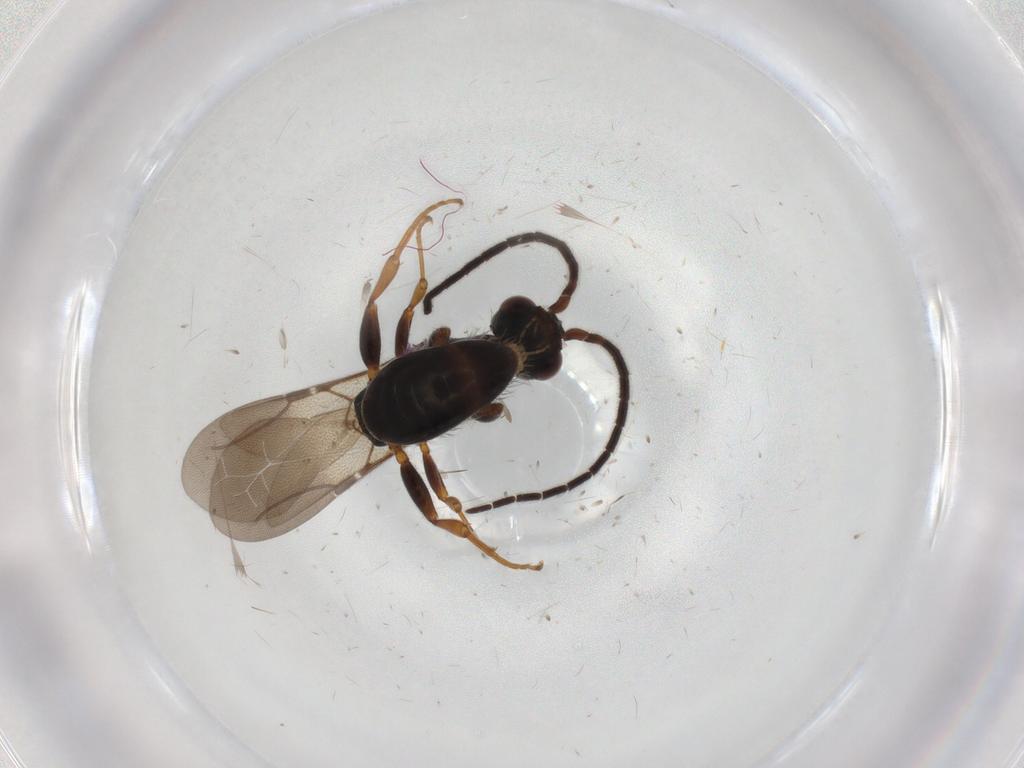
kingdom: Animalia
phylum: Arthropoda
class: Insecta
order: Hymenoptera
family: Bethylidae
